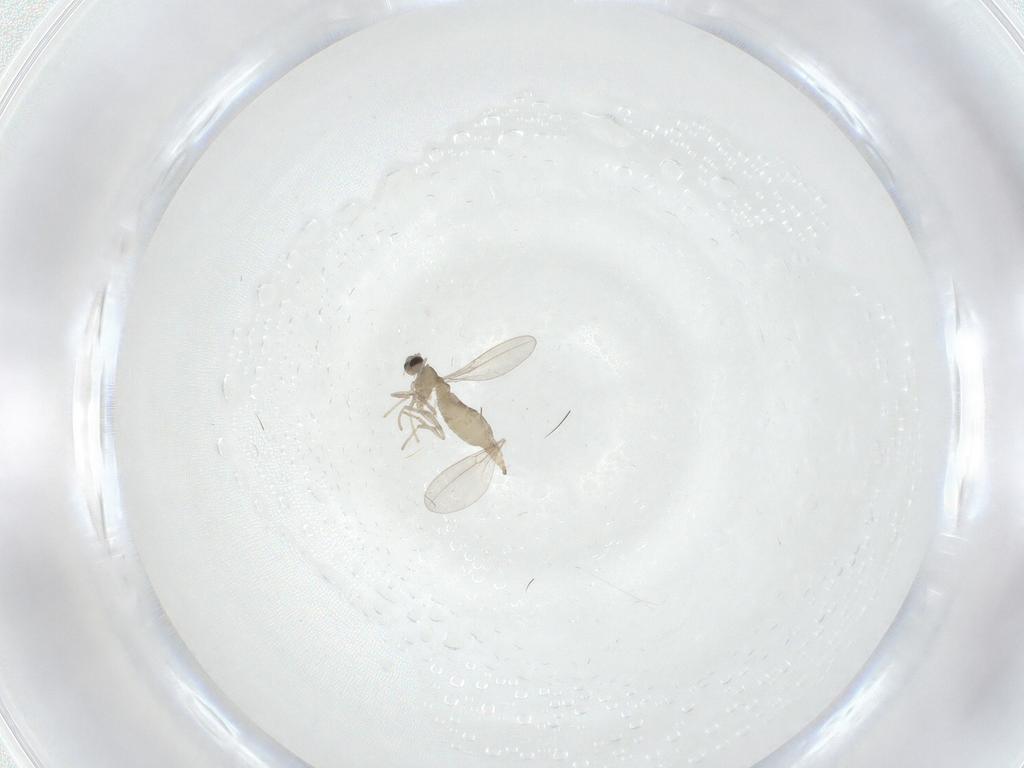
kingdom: Animalia
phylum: Arthropoda
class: Insecta
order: Diptera
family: Cecidomyiidae
